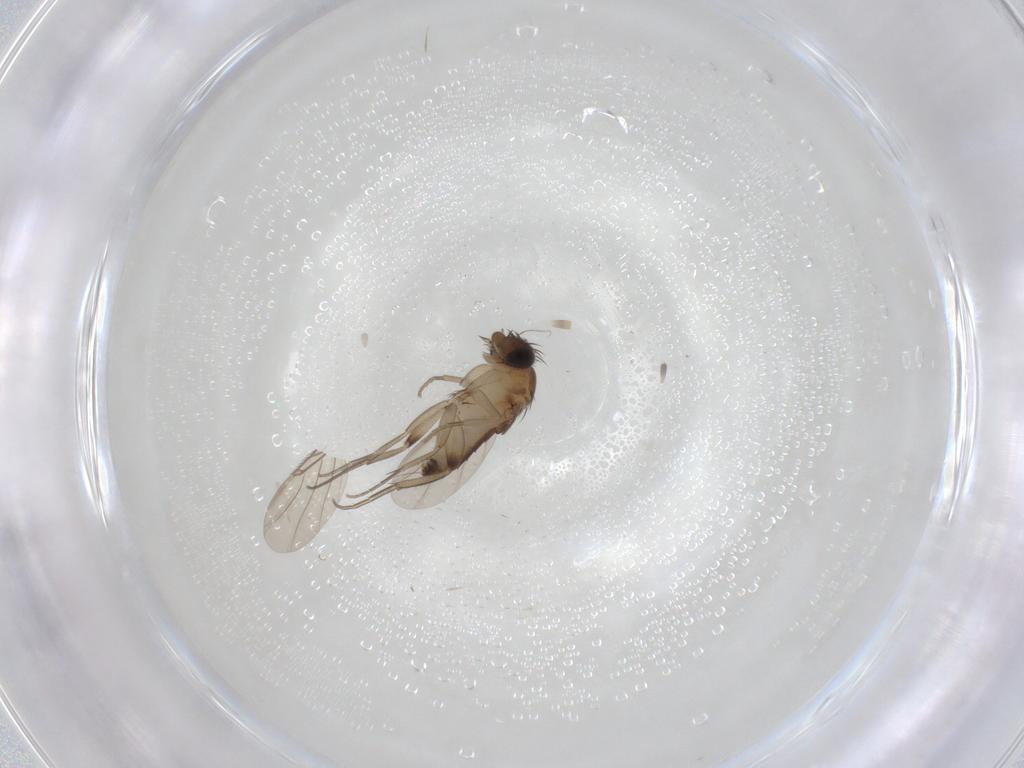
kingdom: Animalia
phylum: Arthropoda
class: Insecta
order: Diptera
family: Phoridae
